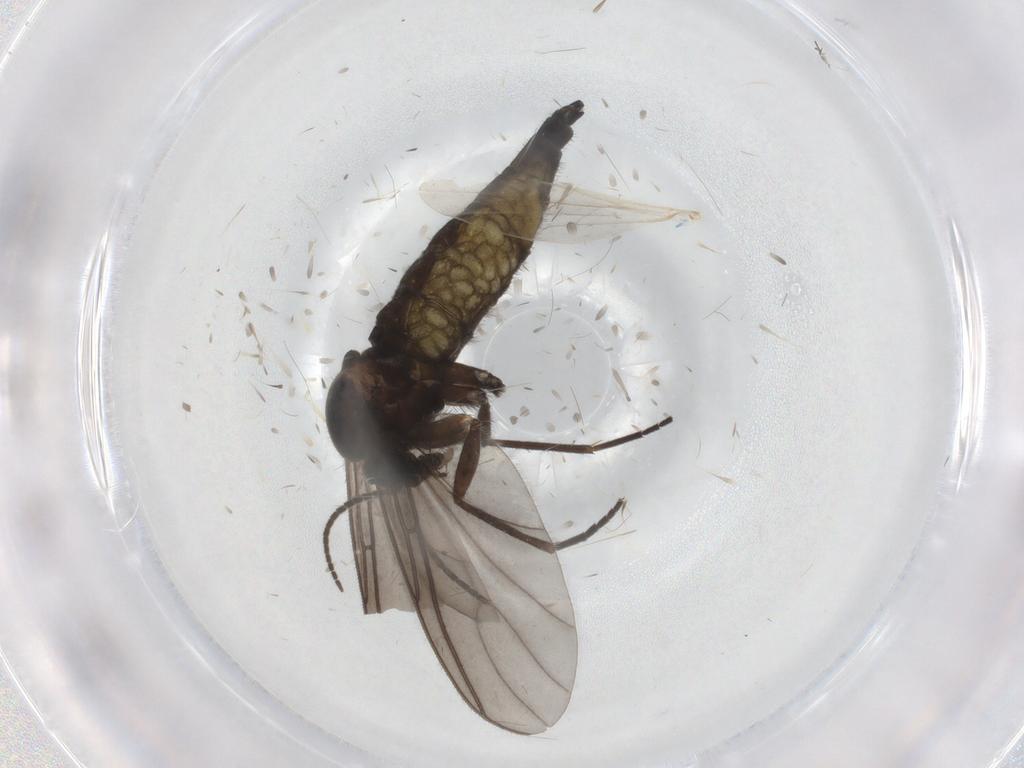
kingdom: Animalia
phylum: Arthropoda
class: Insecta
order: Diptera
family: Sciaridae
